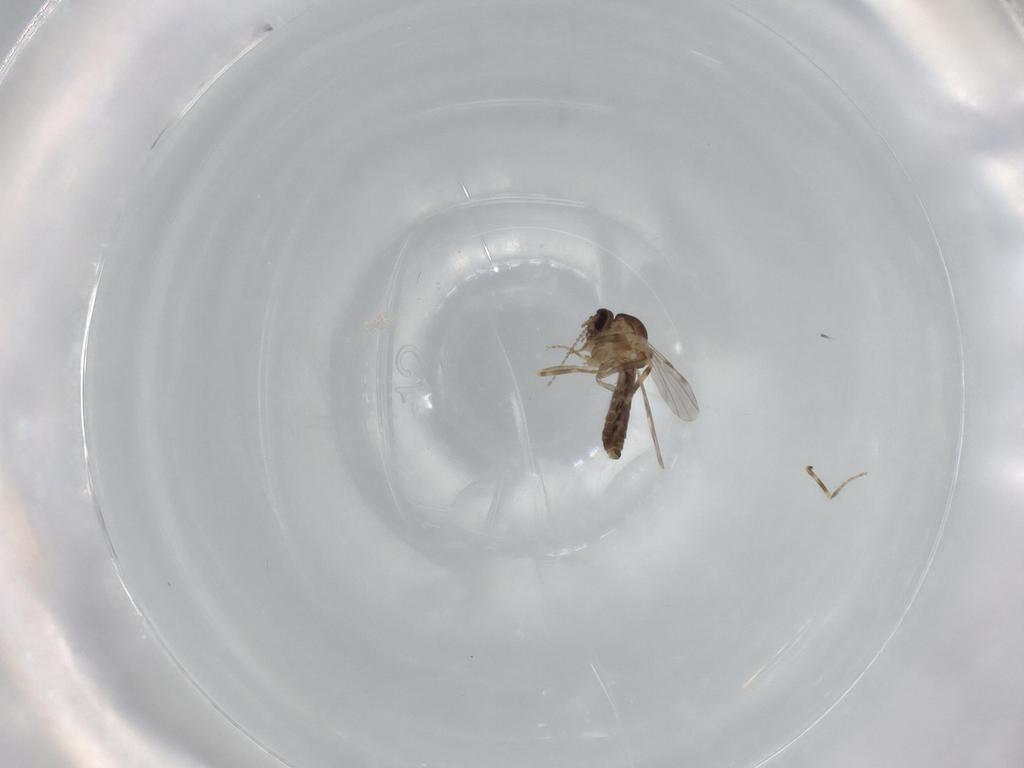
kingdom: Animalia
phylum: Arthropoda
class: Insecta
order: Diptera
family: Ceratopogonidae
